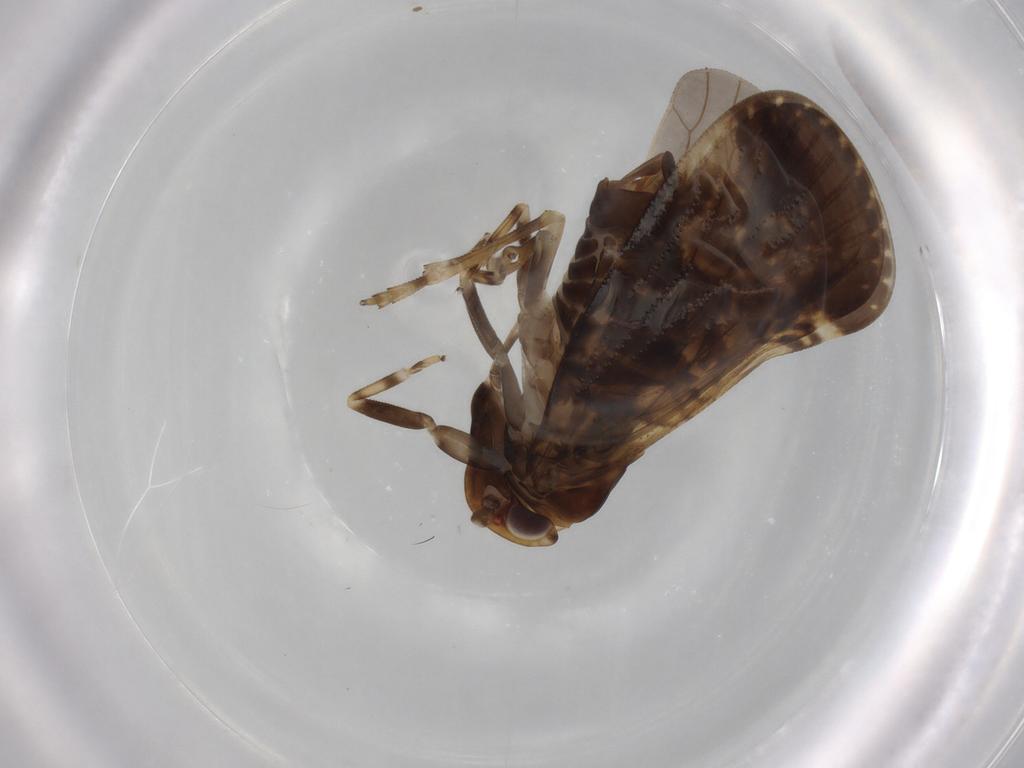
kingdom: Animalia
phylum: Arthropoda
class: Insecta
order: Hemiptera
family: Cixiidae
